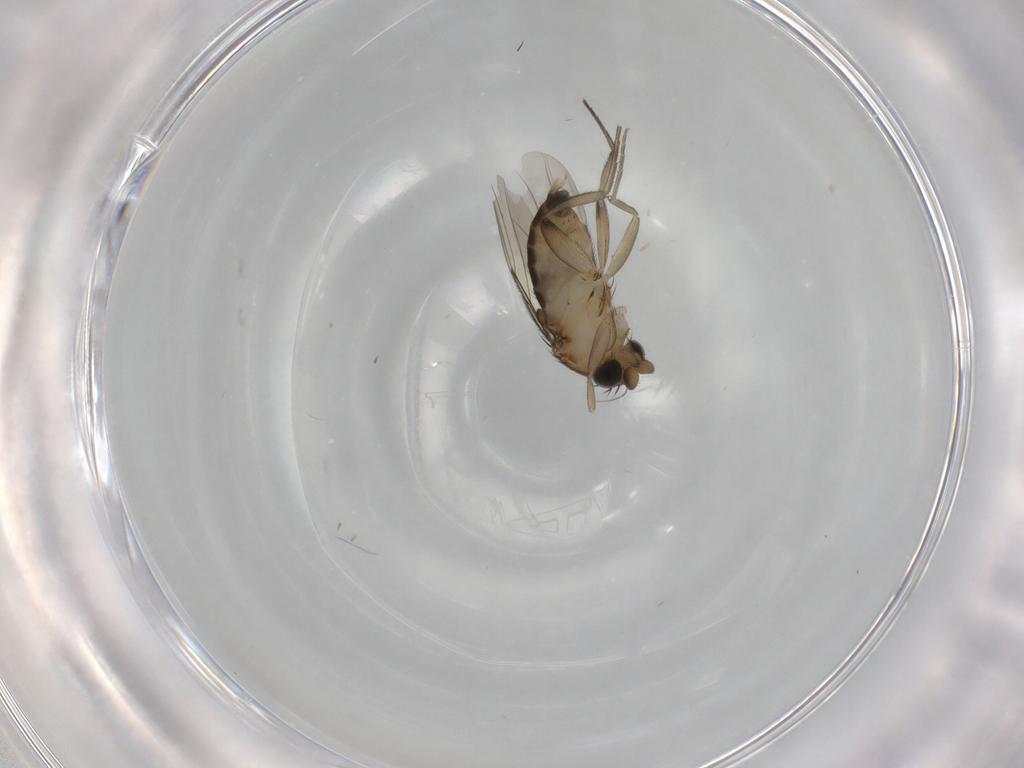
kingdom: Animalia
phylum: Arthropoda
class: Insecta
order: Diptera
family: Phoridae
